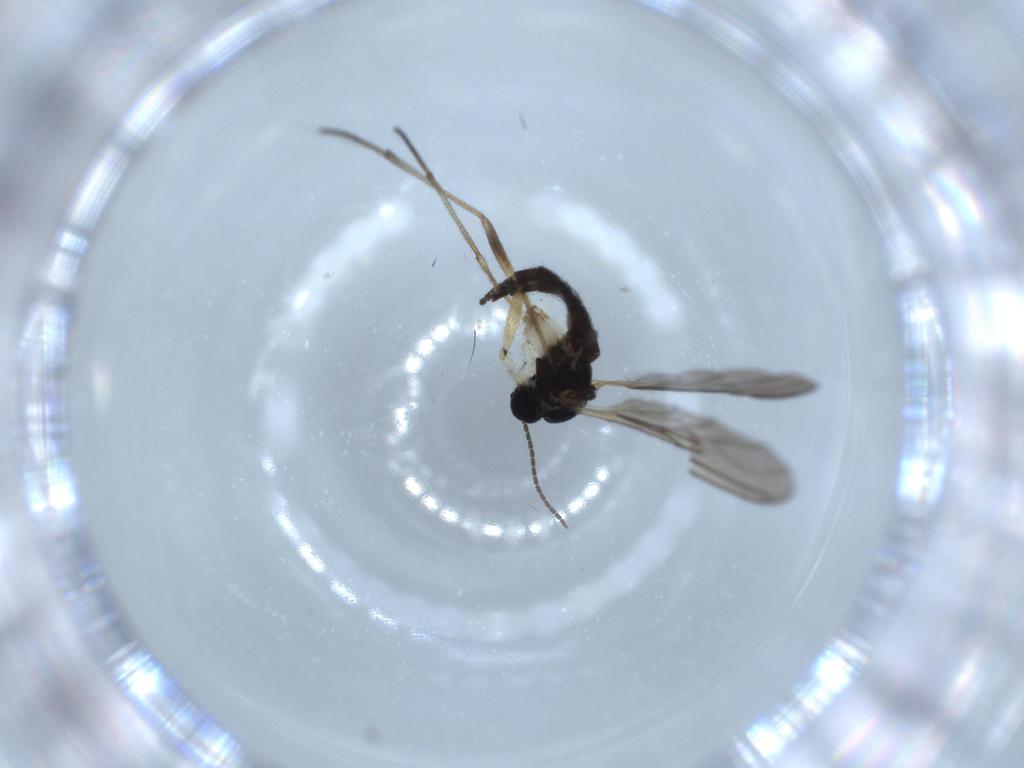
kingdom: Animalia
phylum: Arthropoda
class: Insecta
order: Diptera
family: Sciaridae
